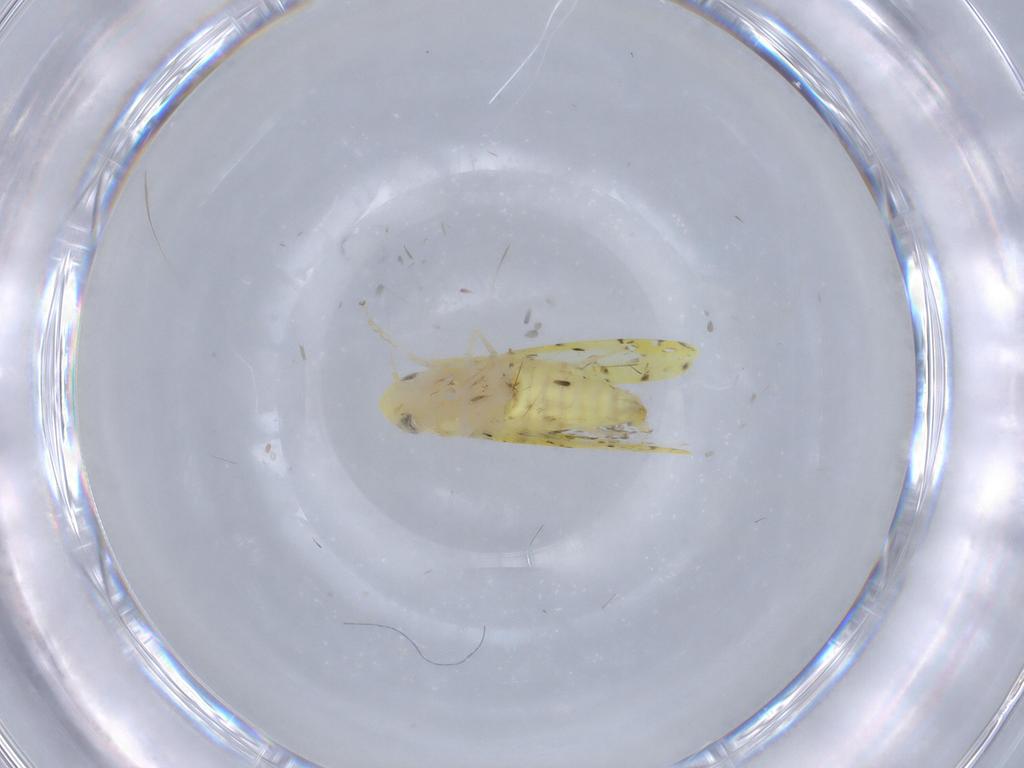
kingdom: Animalia
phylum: Arthropoda
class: Insecta
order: Hemiptera
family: Cicadellidae
